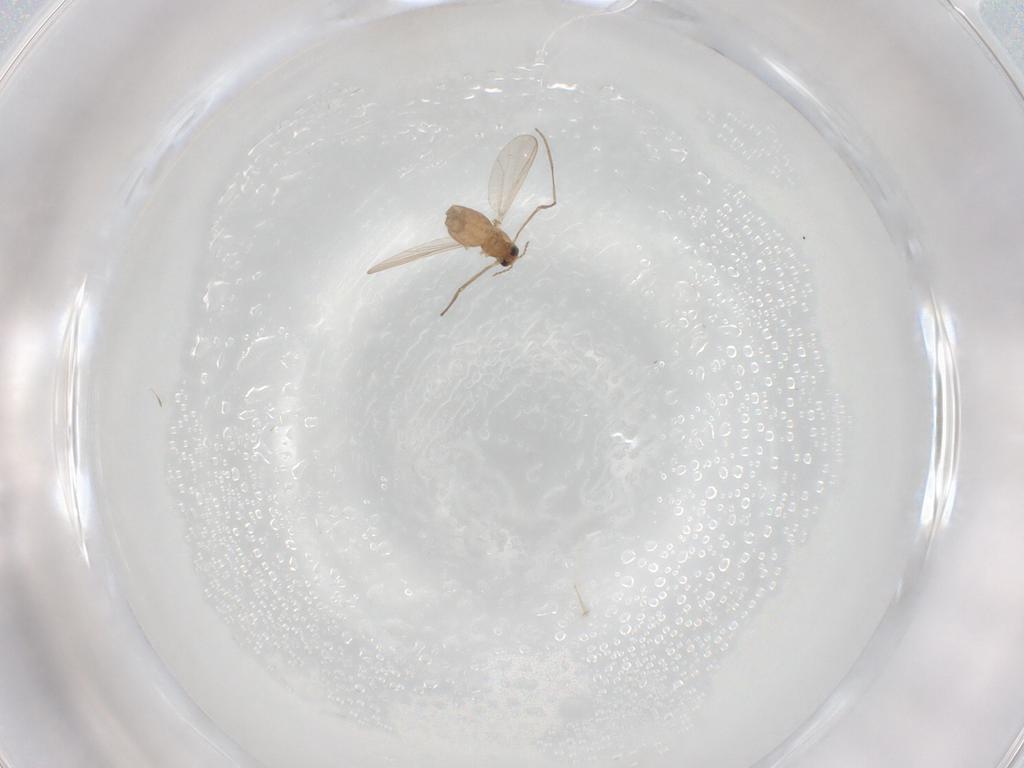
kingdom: Animalia
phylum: Arthropoda
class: Insecta
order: Diptera
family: Chironomidae
